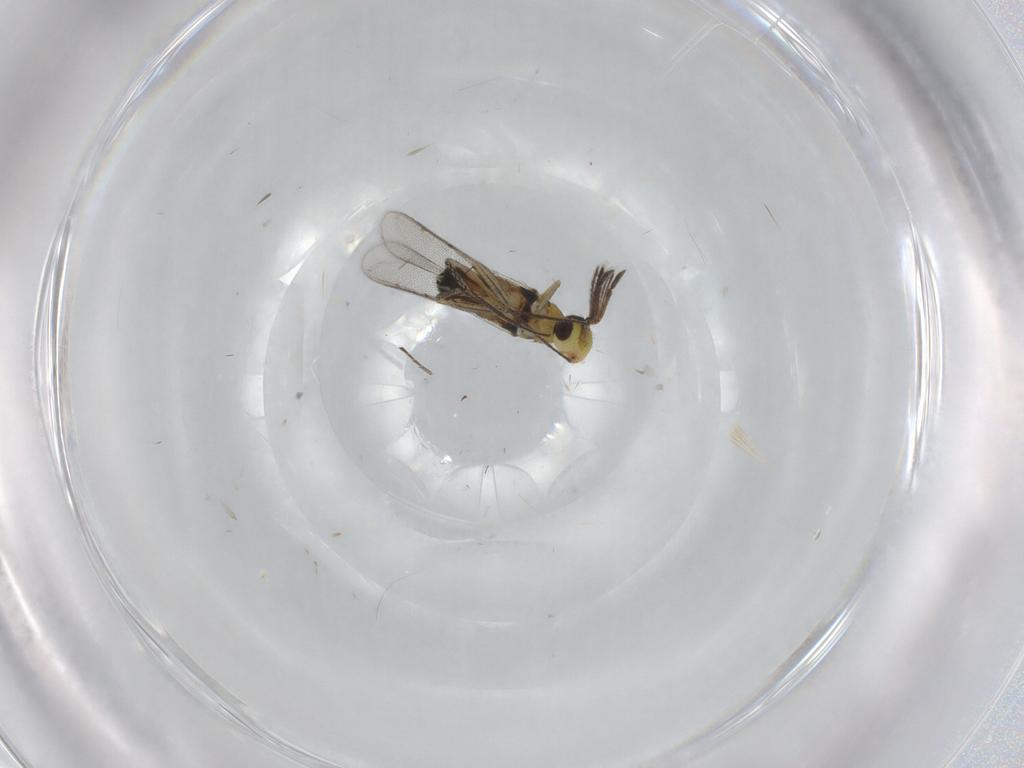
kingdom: Animalia
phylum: Arthropoda
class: Insecta
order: Hymenoptera
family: Eulophidae
